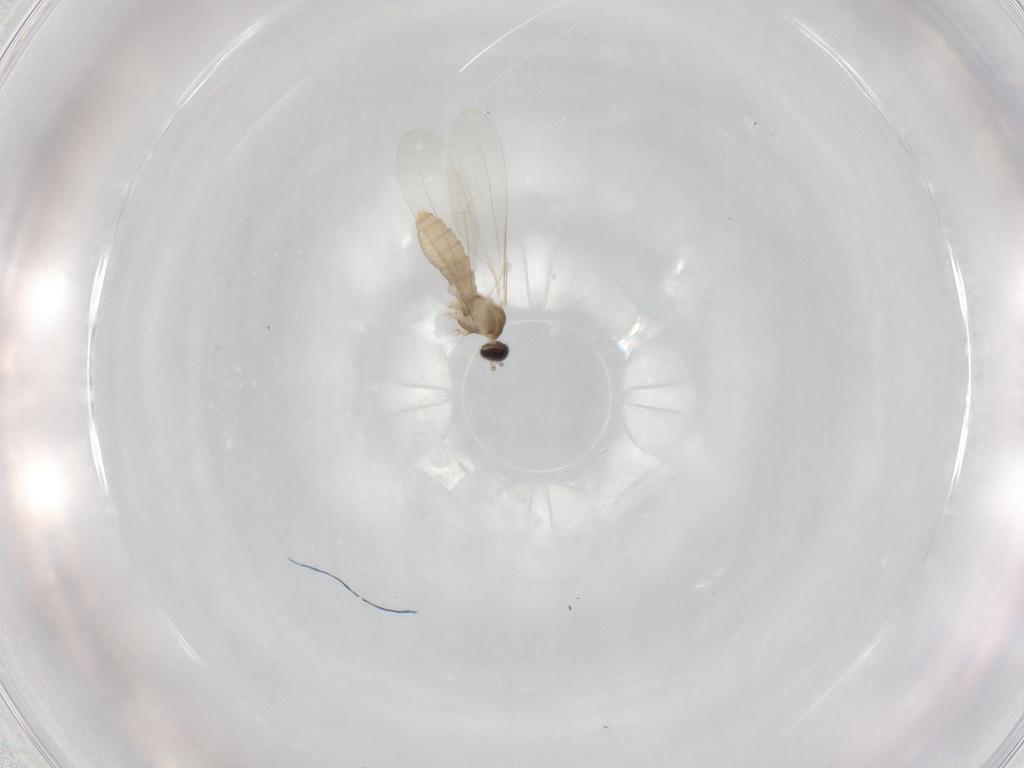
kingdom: Animalia
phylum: Arthropoda
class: Insecta
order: Diptera
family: Cecidomyiidae
